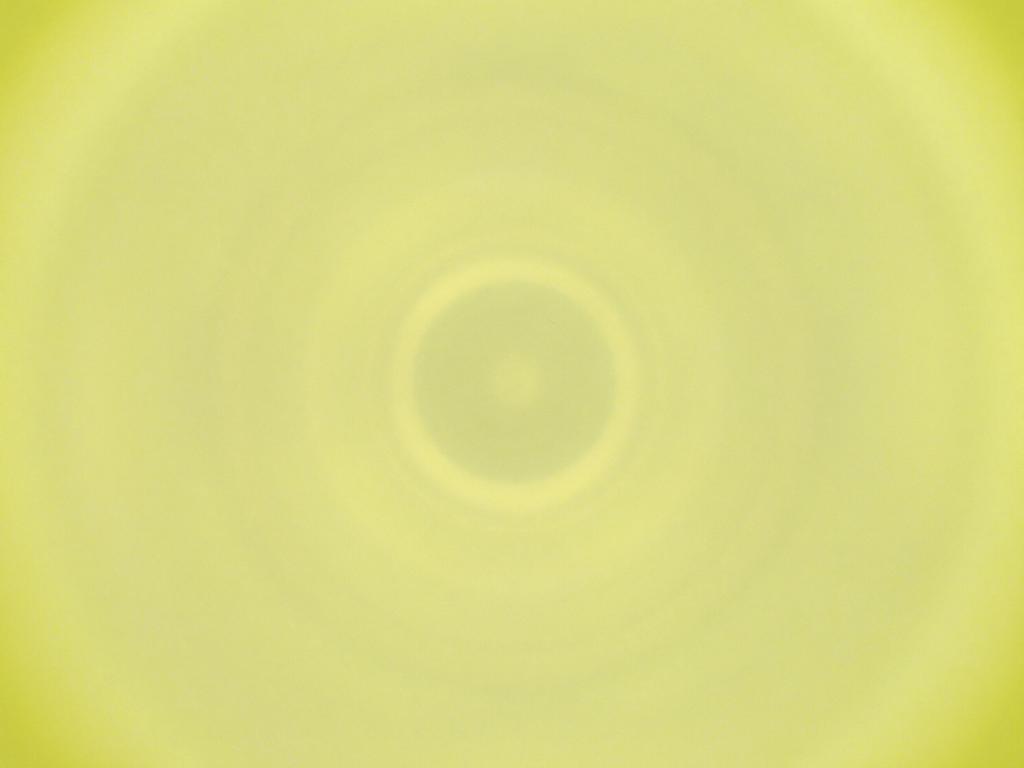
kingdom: Animalia
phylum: Arthropoda
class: Insecta
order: Diptera
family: Cecidomyiidae
